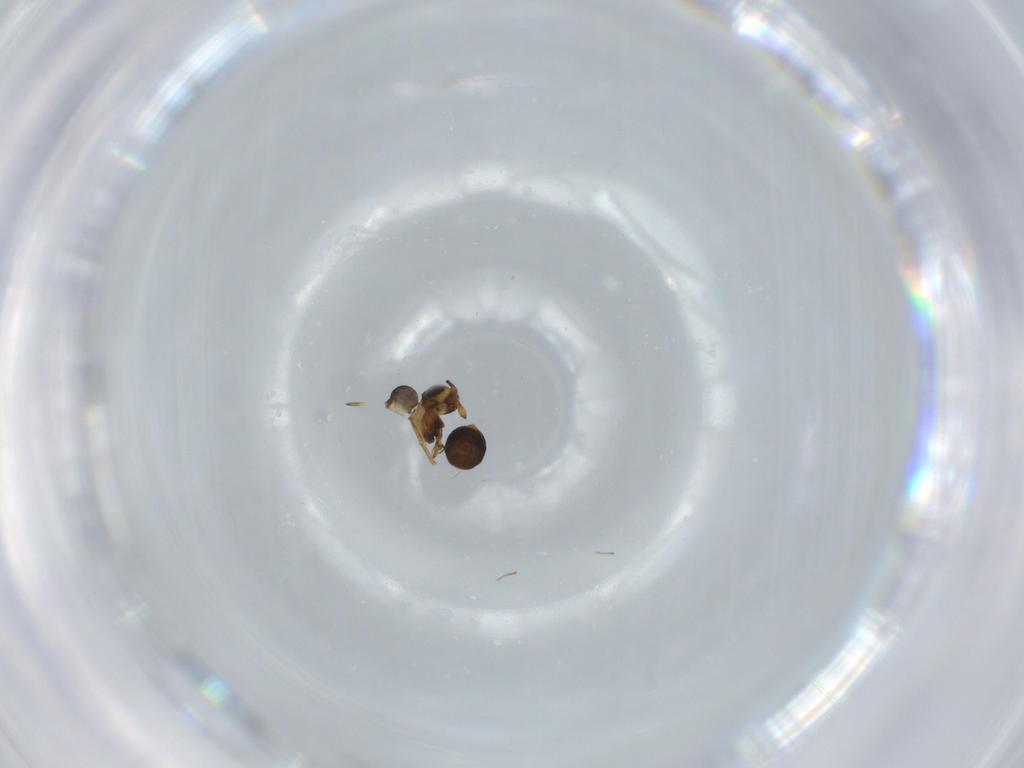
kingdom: Animalia
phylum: Arthropoda
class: Insecta
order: Hymenoptera
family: Scelionidae
